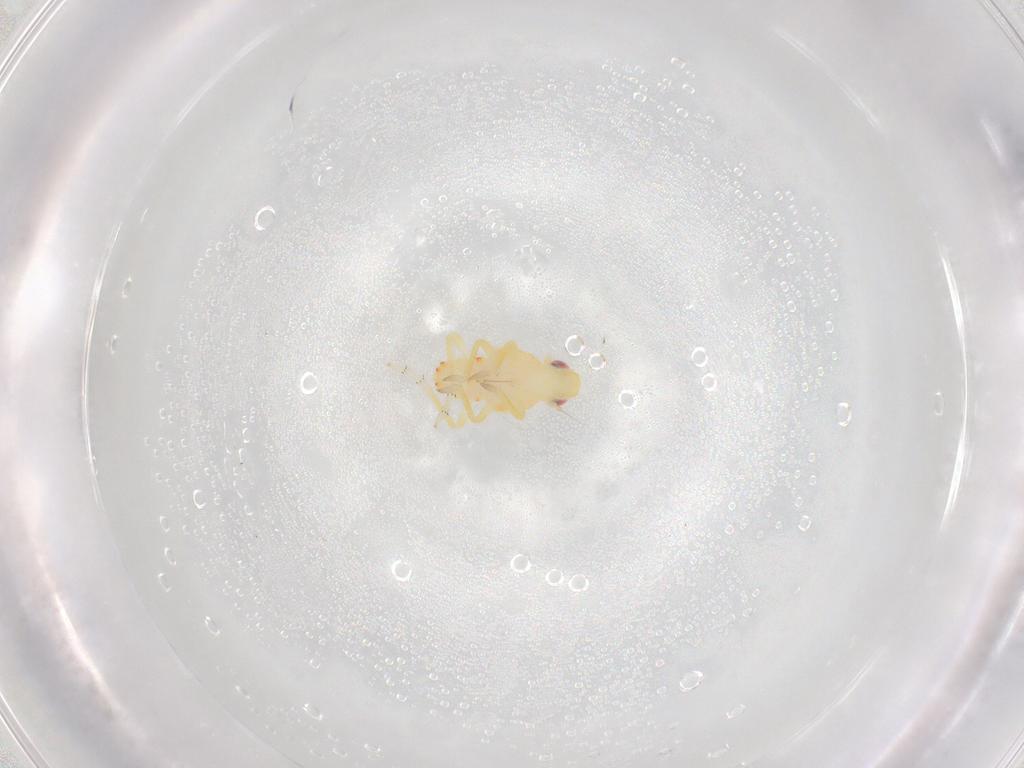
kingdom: Animalia
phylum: Arthropoda
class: Insecta
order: Hemiptera
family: Tropiduchidae
